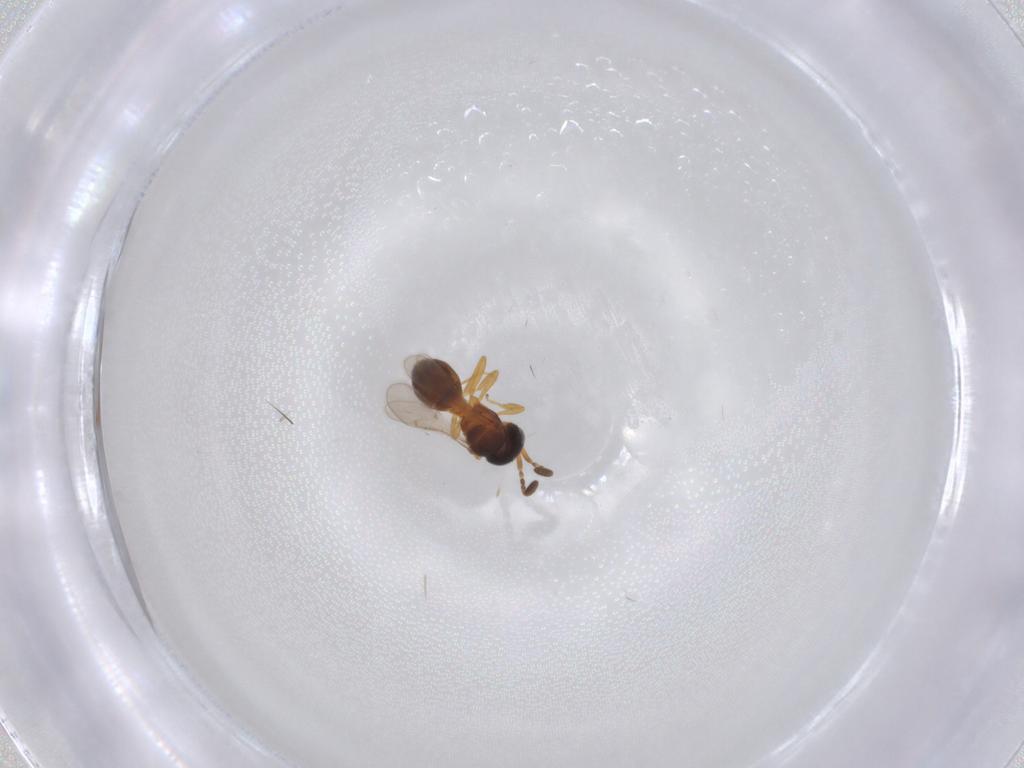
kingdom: Animalia
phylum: Arthropoda
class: Insecta
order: Hymenoptera
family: Scelionidae
